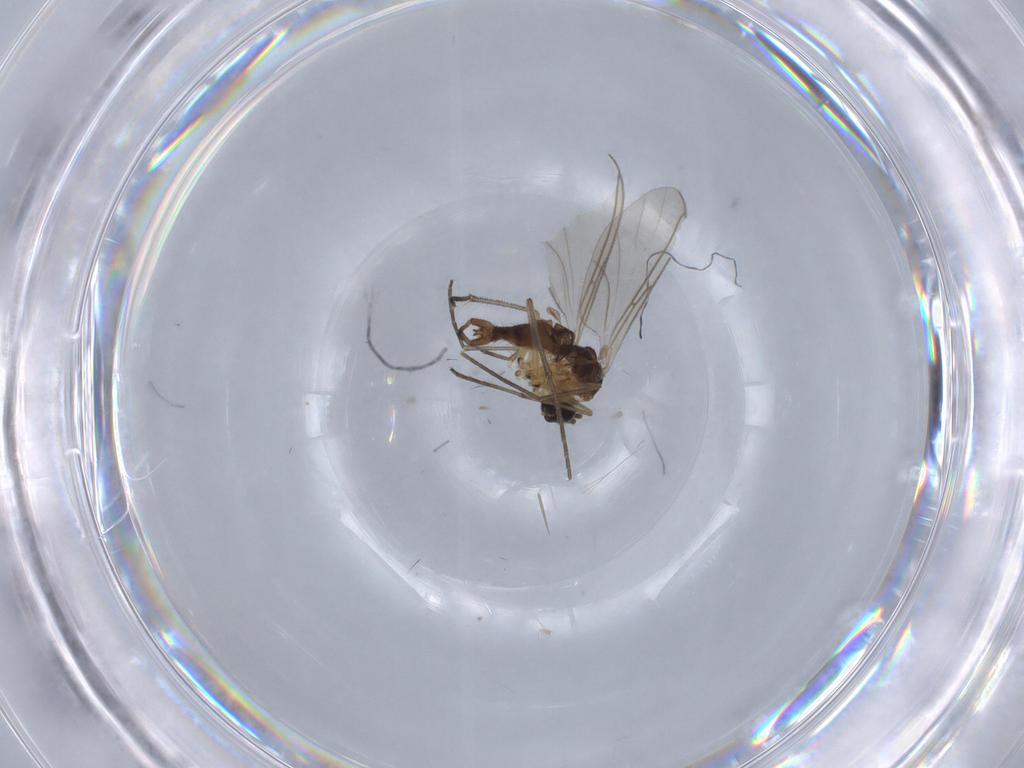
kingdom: Animalia
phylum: Arthropoda
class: Insecta
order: Diptera
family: Sciaridae
